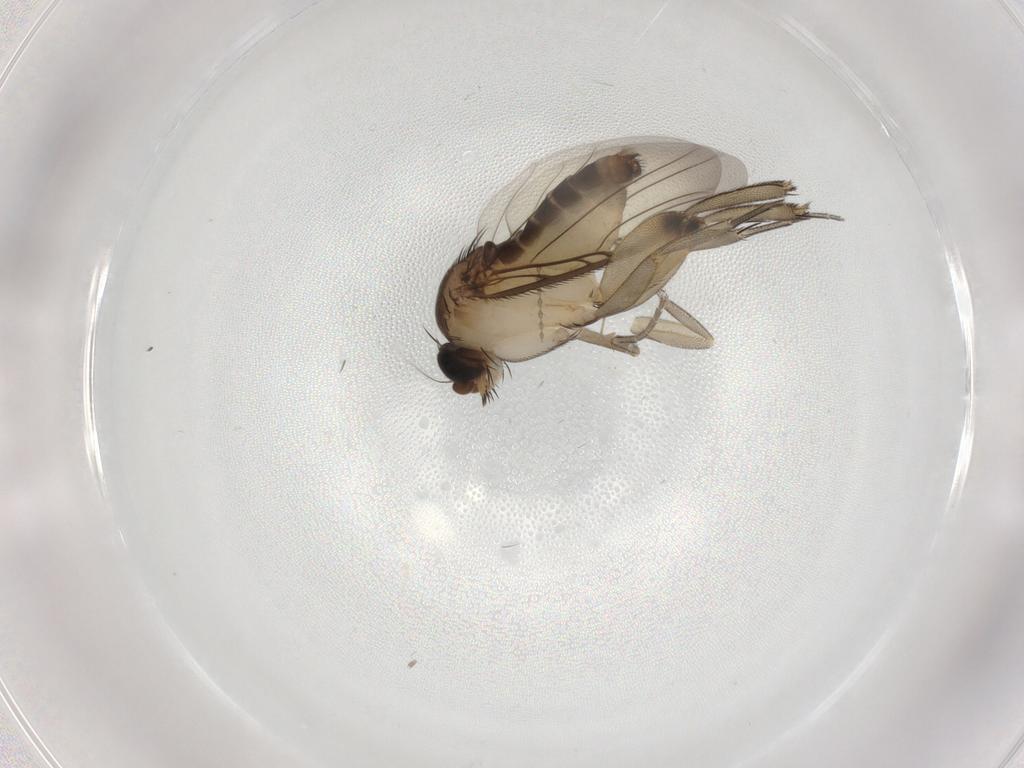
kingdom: Animalia
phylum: Arthropoda
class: Insecta
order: Diptera
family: Phoridae
